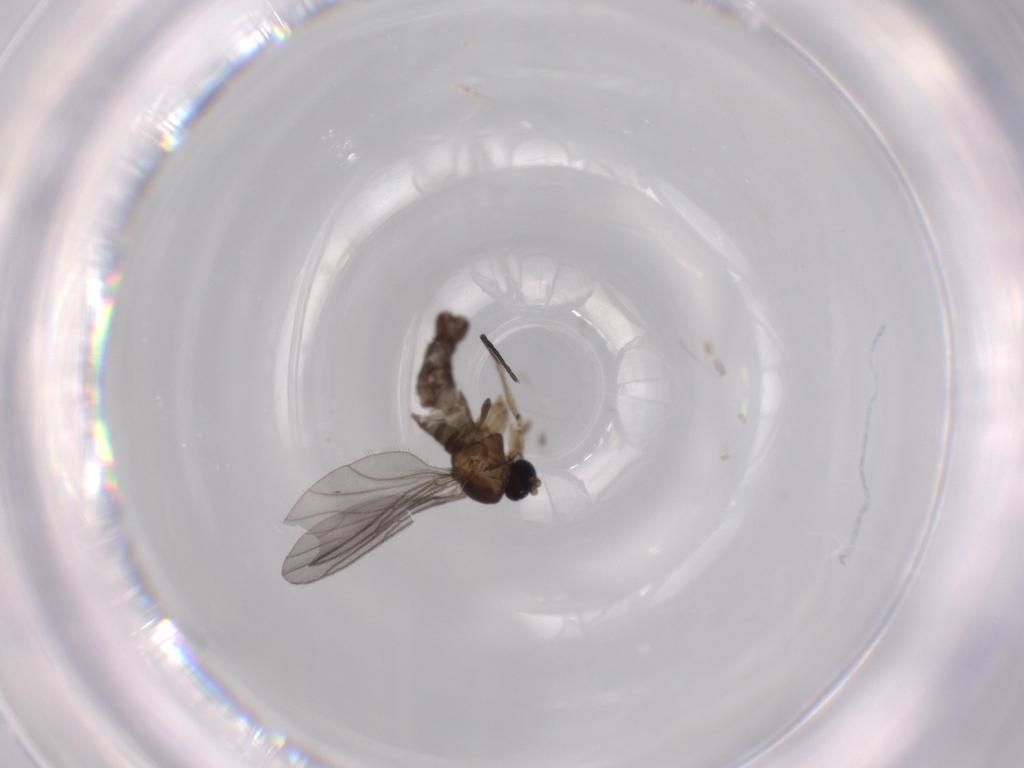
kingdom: Animalia
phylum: Arthropoda
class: Insecta
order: Diptera
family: Sciaridae
